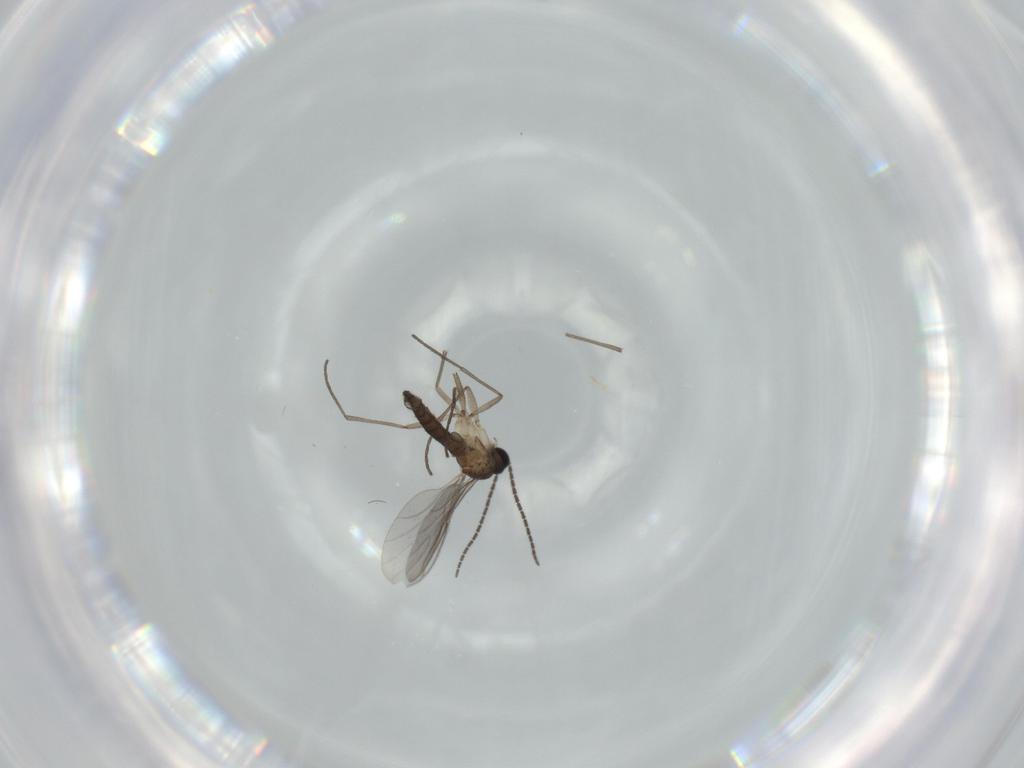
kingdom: Animalia
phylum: Arthropoda
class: Insecta
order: Diptera
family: Sciaridae
